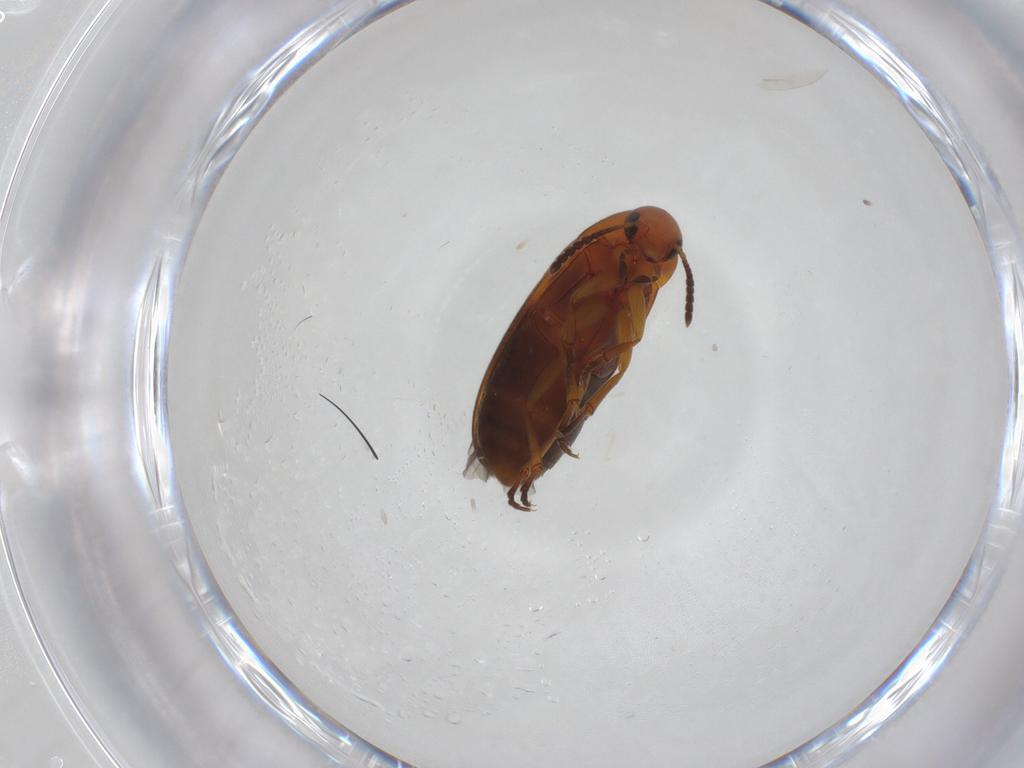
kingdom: Animalia
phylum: Arthropoda
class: Insecta
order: Coleoptera
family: Scraptiidae
